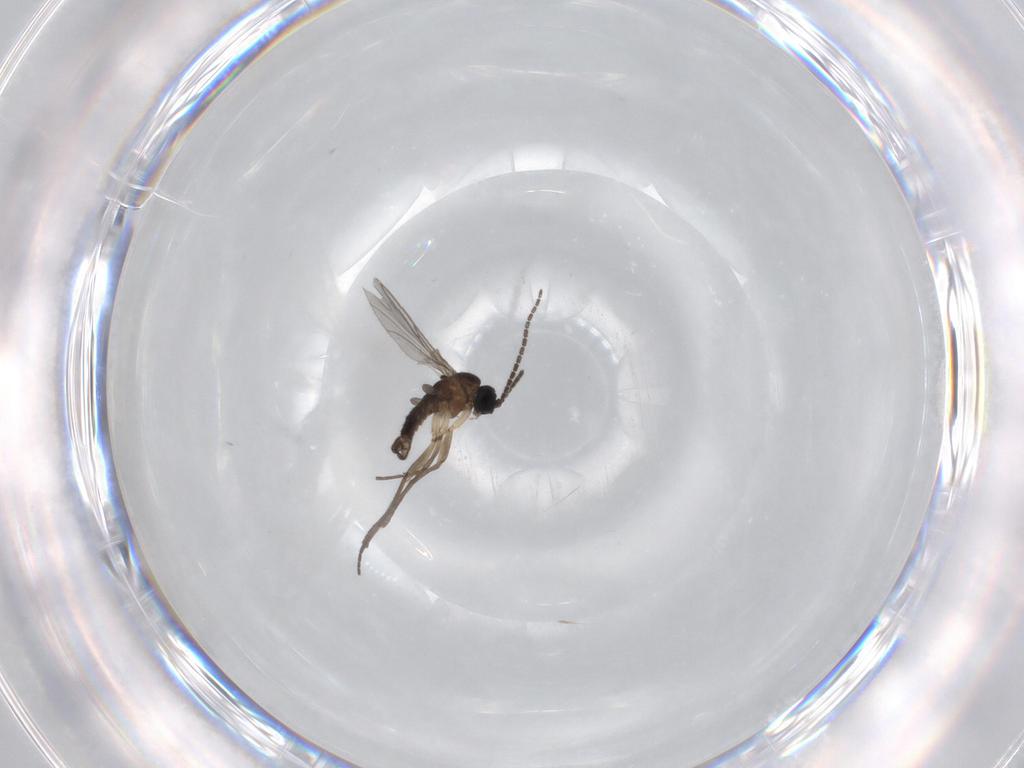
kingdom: Animalia
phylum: Arthropoda
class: Insecta
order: Diptera
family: Sciaridae
